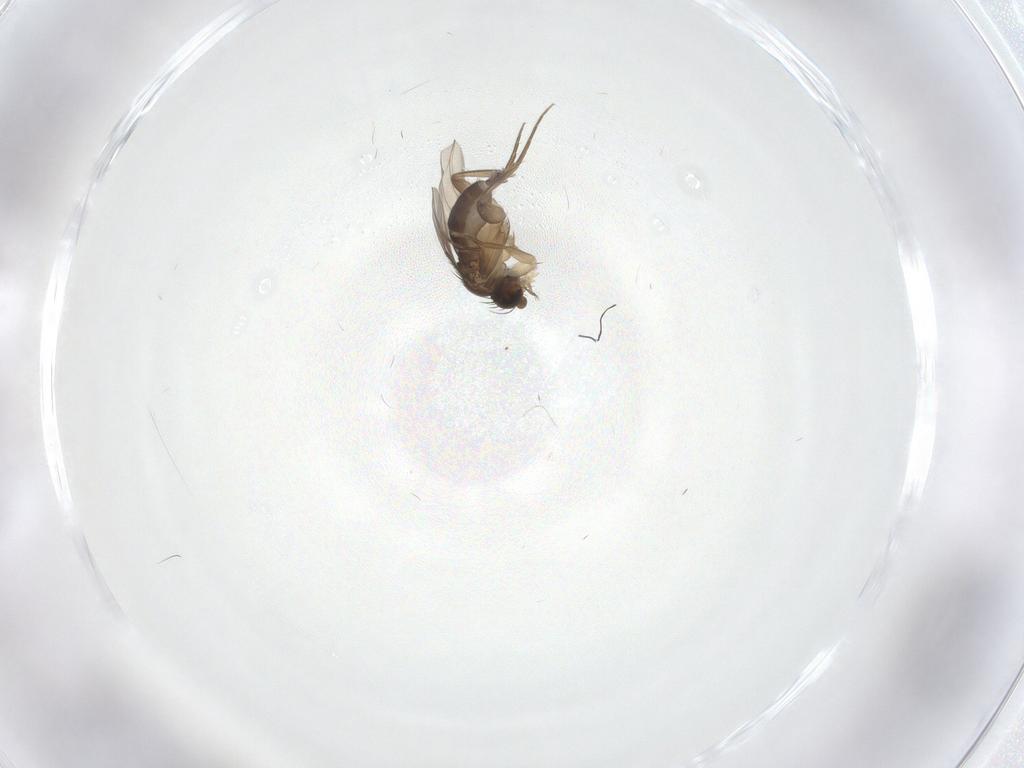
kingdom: Animalia
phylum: Arthropoda
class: Insecta
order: Diptera
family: Phoridae
